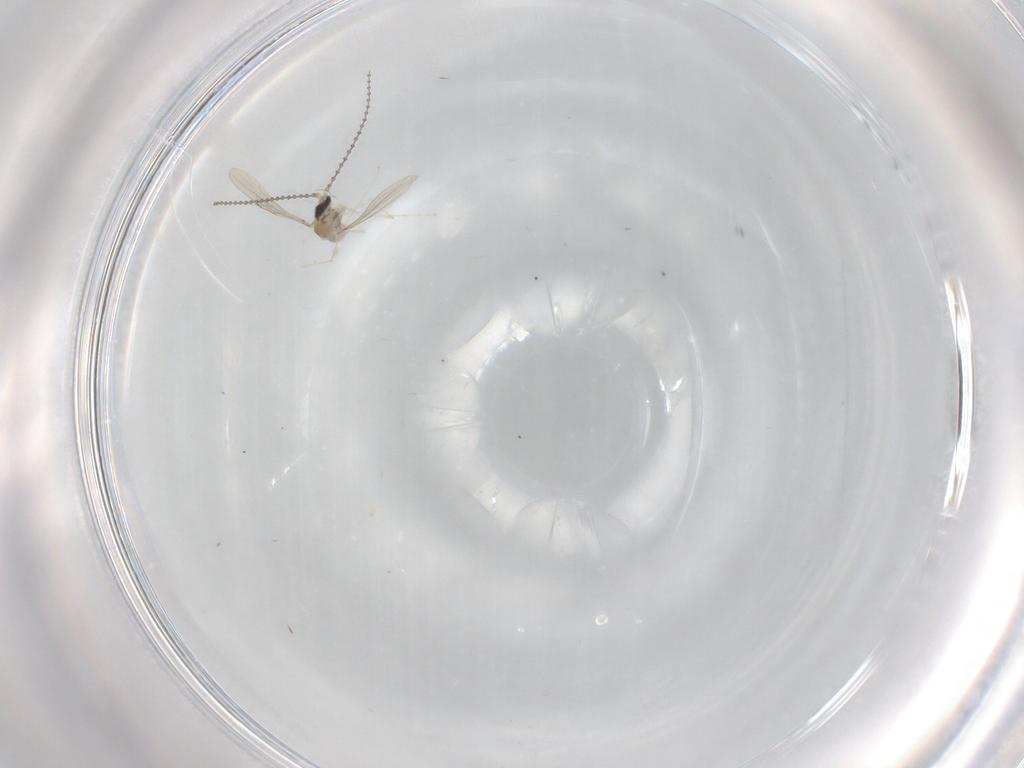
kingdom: Animalia
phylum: Arthropoda
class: Insecta
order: Diptera
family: Cecidomyiidae
